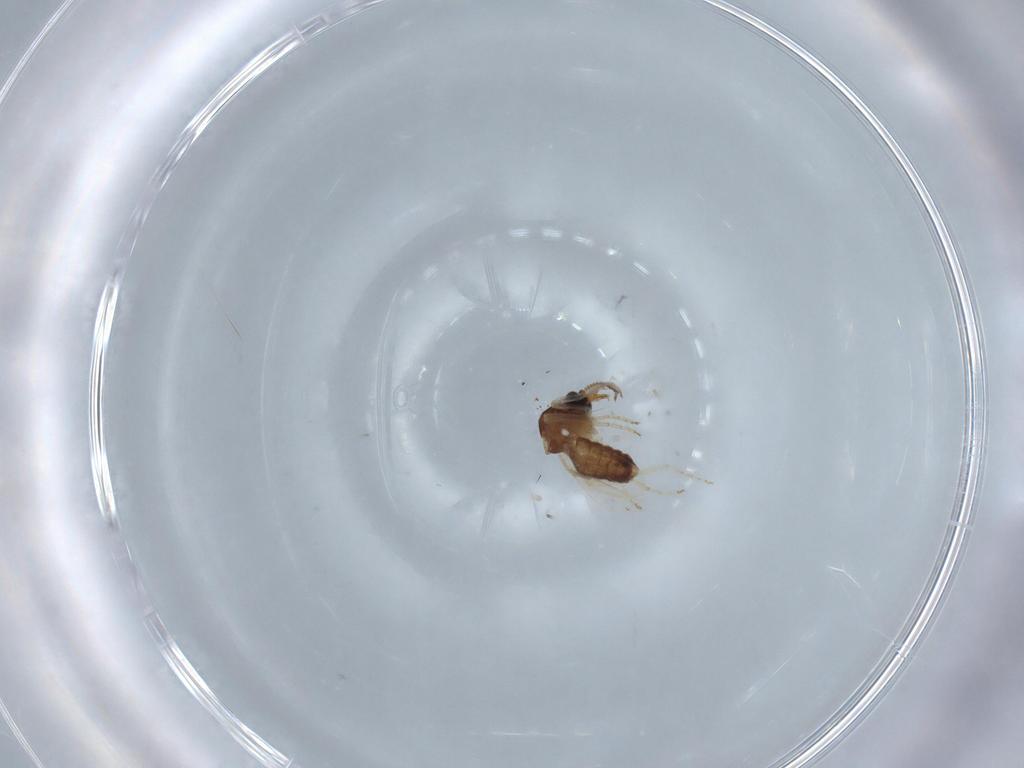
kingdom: Animalia
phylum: Arthropoda
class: Insecta
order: Diptera
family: Ceratopogonidae
